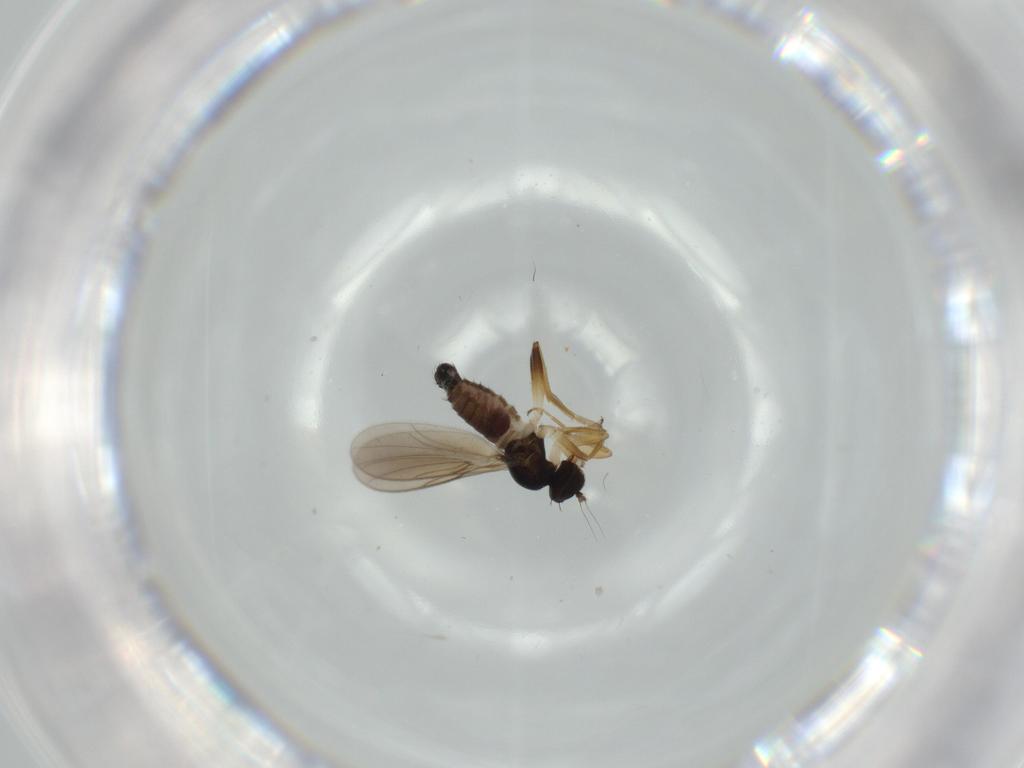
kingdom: Animalia
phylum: Arthropoda
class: Insecta
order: Diptera
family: Hybotidae
